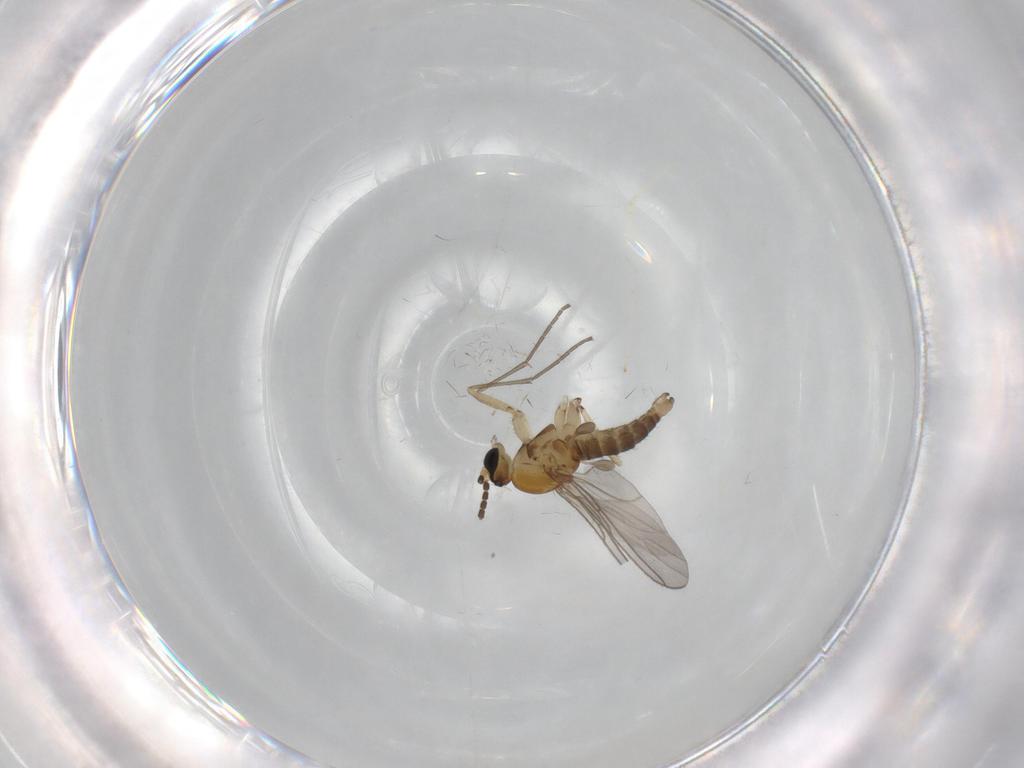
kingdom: Animalia
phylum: Arthropoda
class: Insecta
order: Diptera
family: Sciaridae
